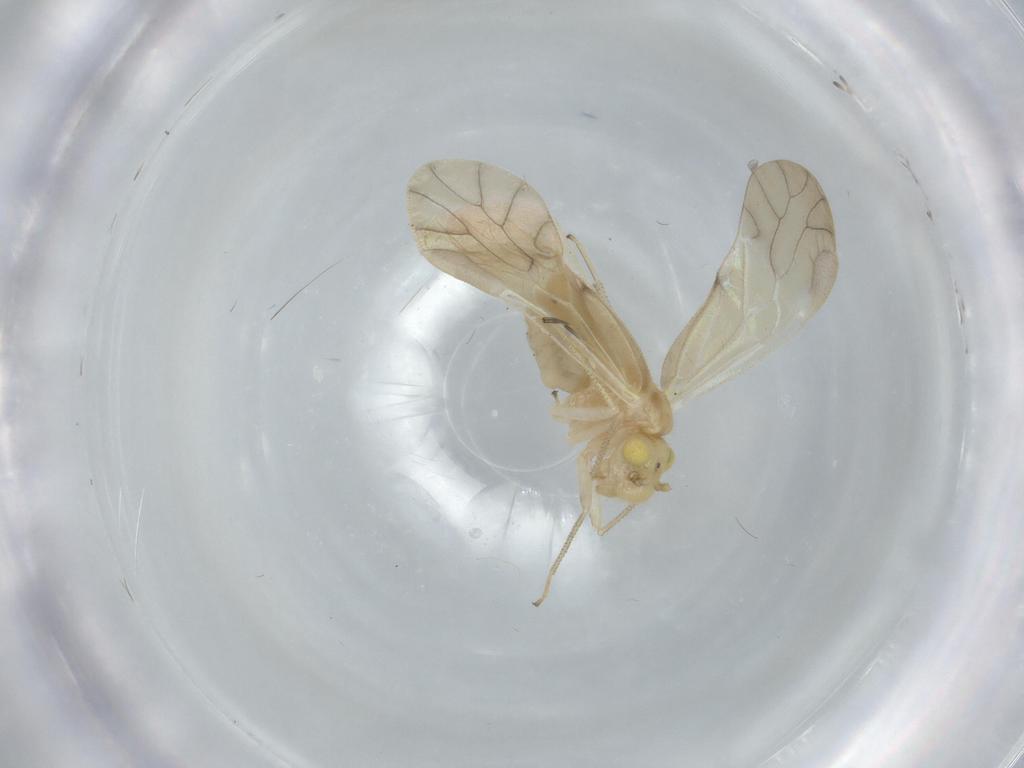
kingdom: Animalia
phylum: Arthropoda
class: Insecta
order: Psocodea
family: Caeciliusidae
